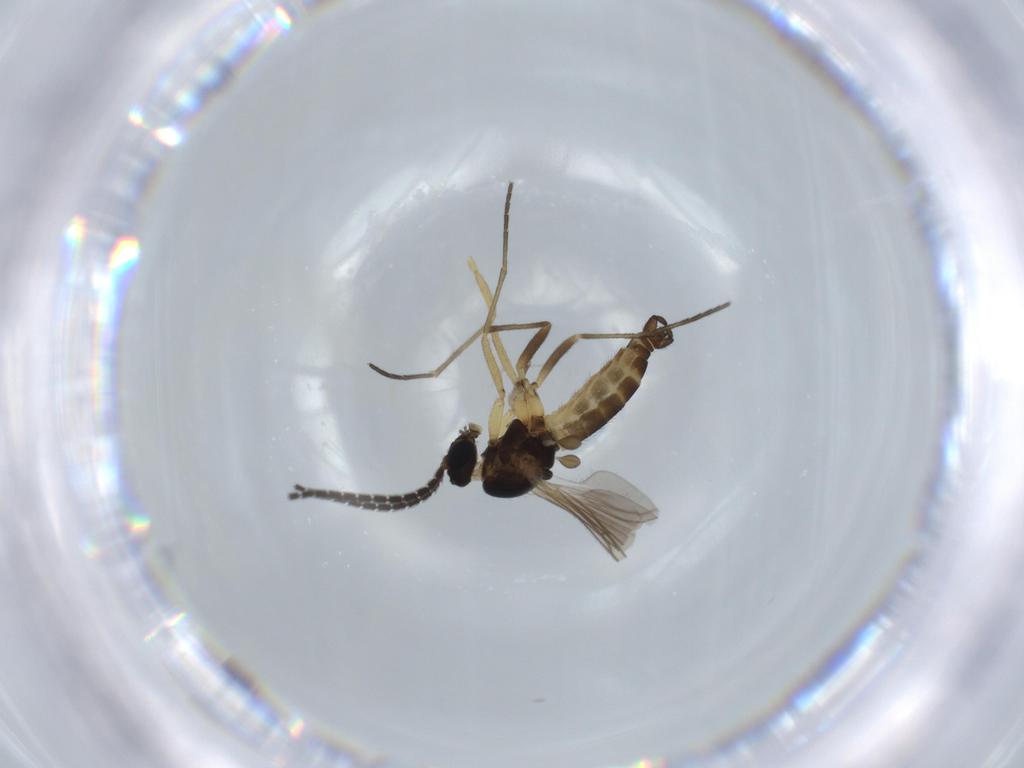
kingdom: Animalia
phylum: Arthropoda
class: Insecta
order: Diptera
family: Sciaridae
